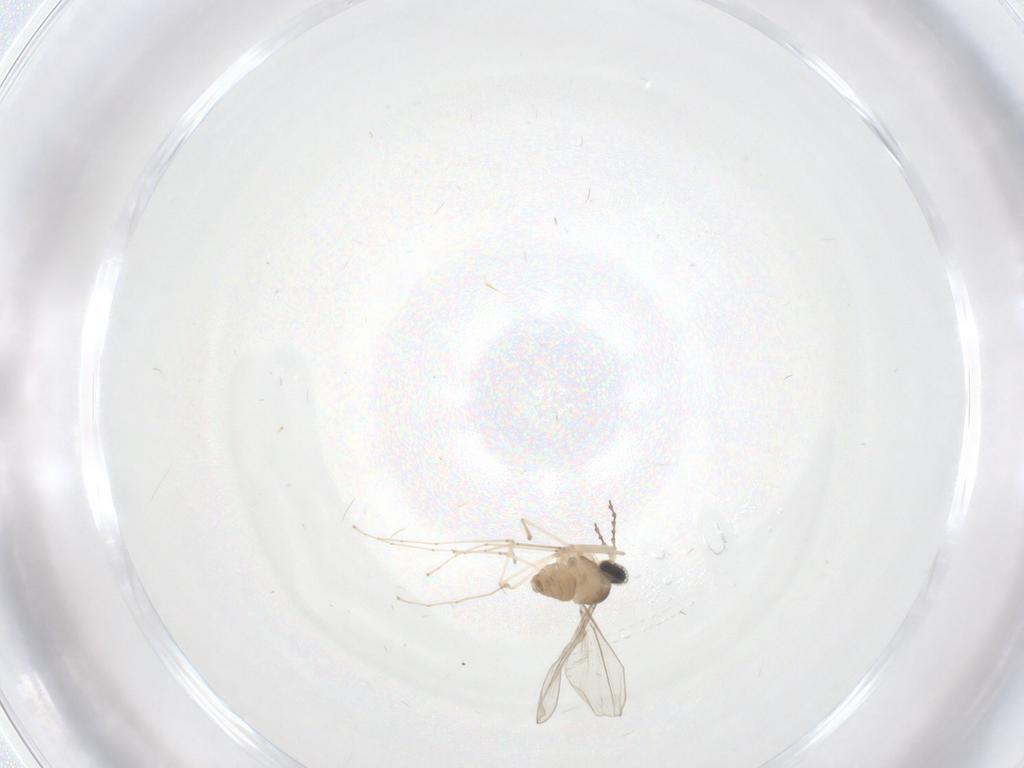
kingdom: Animalia
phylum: Arthropoda
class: Insecta
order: Diptera
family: Cecidomyiidae
